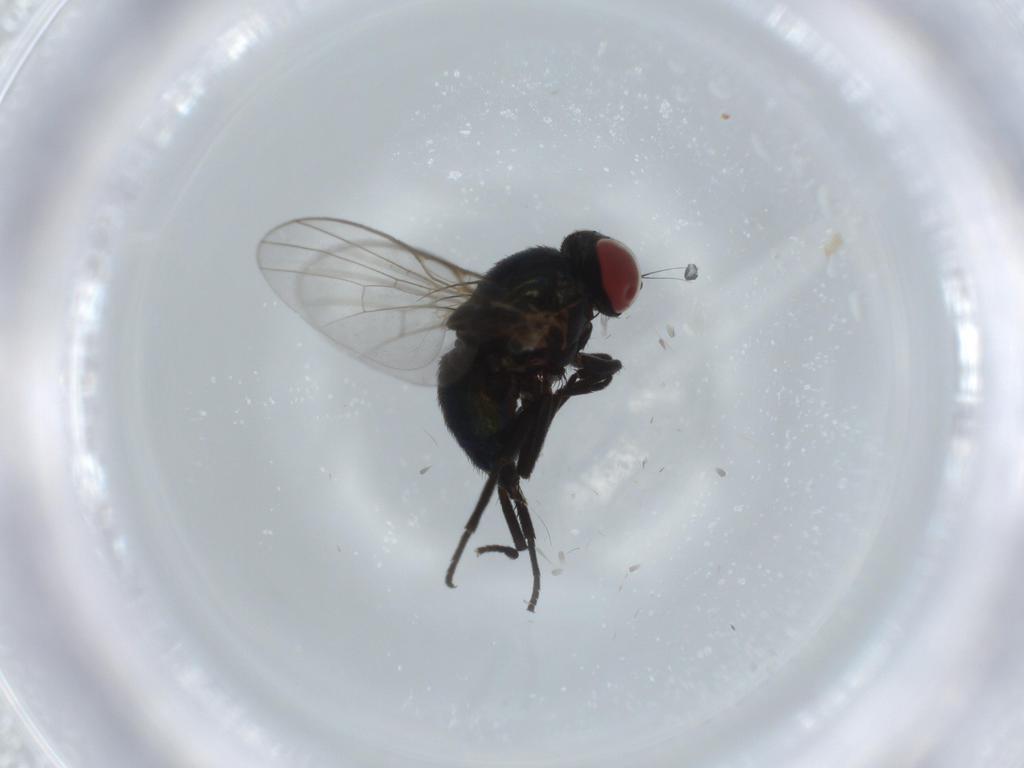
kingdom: Animalia
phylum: Arthropoda
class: Insecta
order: Diptera
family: Agromyzidae
